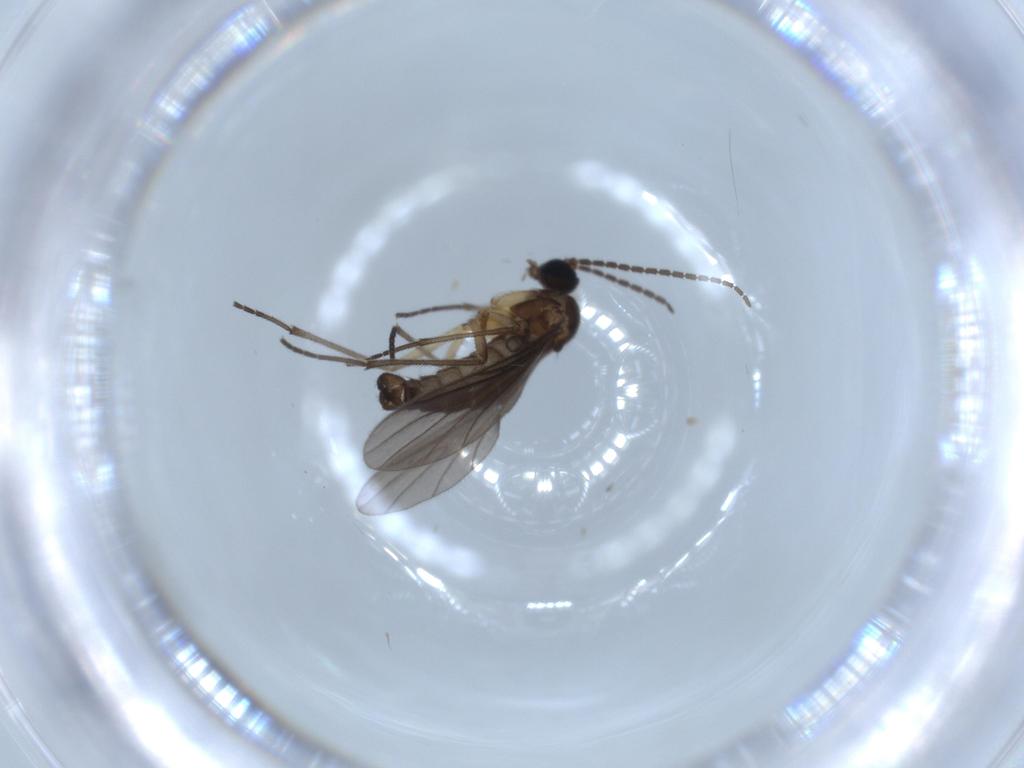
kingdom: Animalia
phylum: Arthropoda
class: Insecta
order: Diptera
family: Sciaridae
